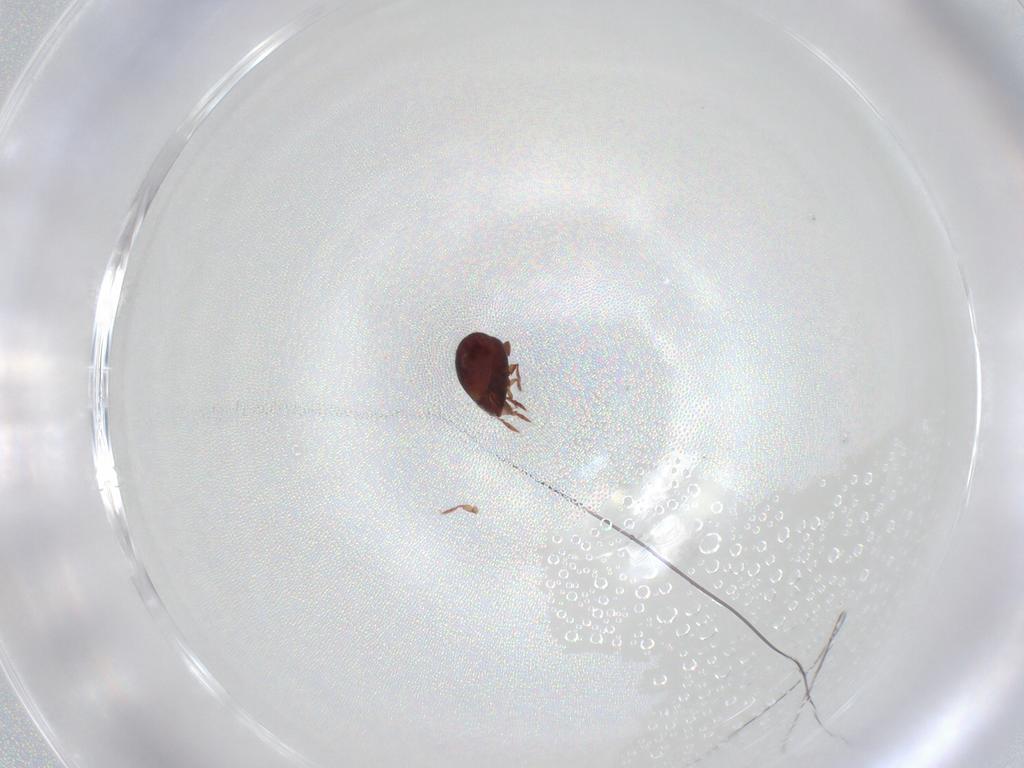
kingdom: Animalia
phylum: Arthropoda
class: Arachnida
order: Sarcoptiformes
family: Humerobatidae
